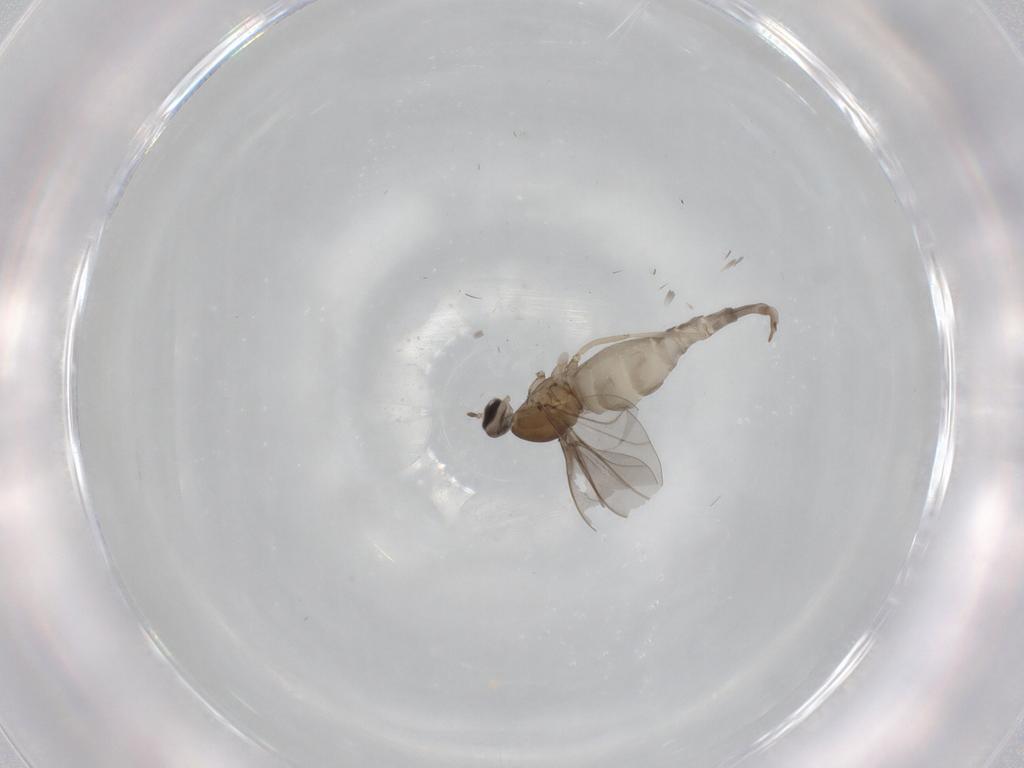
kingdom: Animalia
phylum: Arthropoda
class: Insecta
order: Diptera
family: Cecidomyiidae
